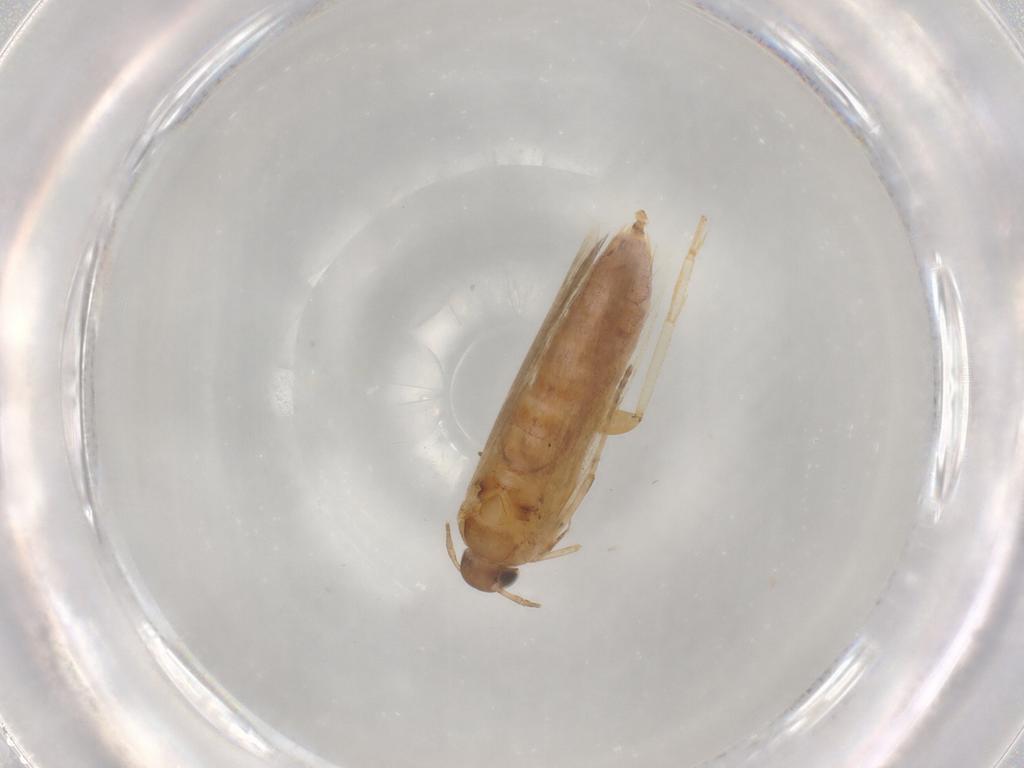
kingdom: Animalia
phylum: Arthropoda
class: Insecta
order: Lepidoptera
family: Gelechiidae
